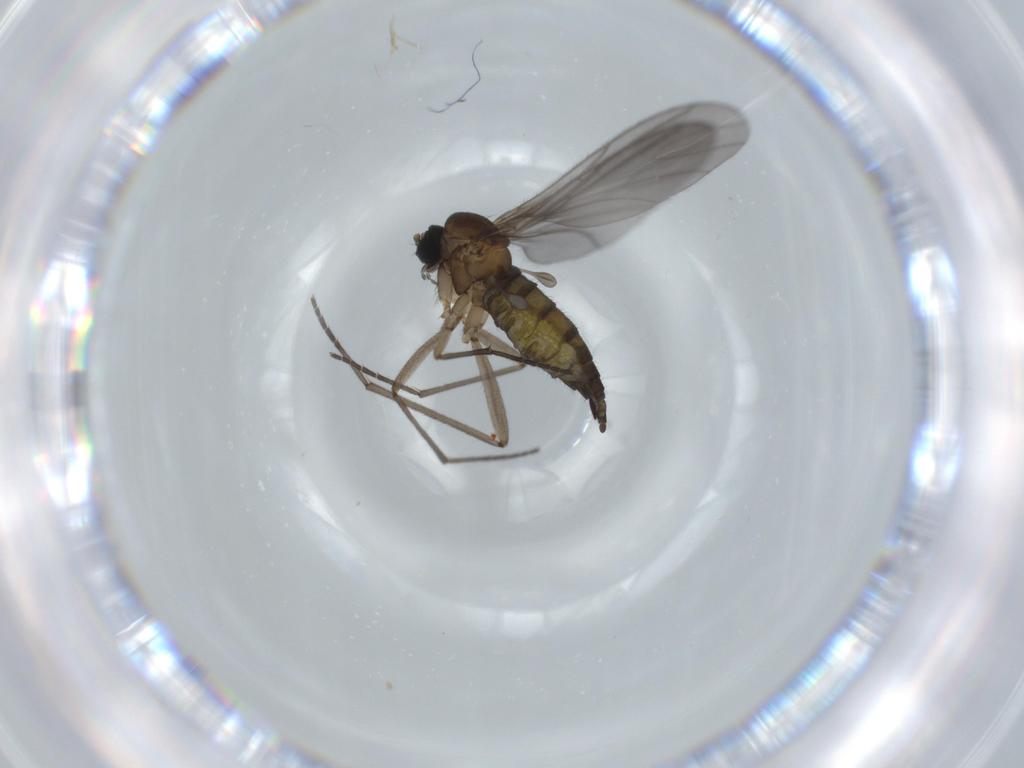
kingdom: Animalia
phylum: Arthropoda
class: Insecta
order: Diptera
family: Sciaridae
